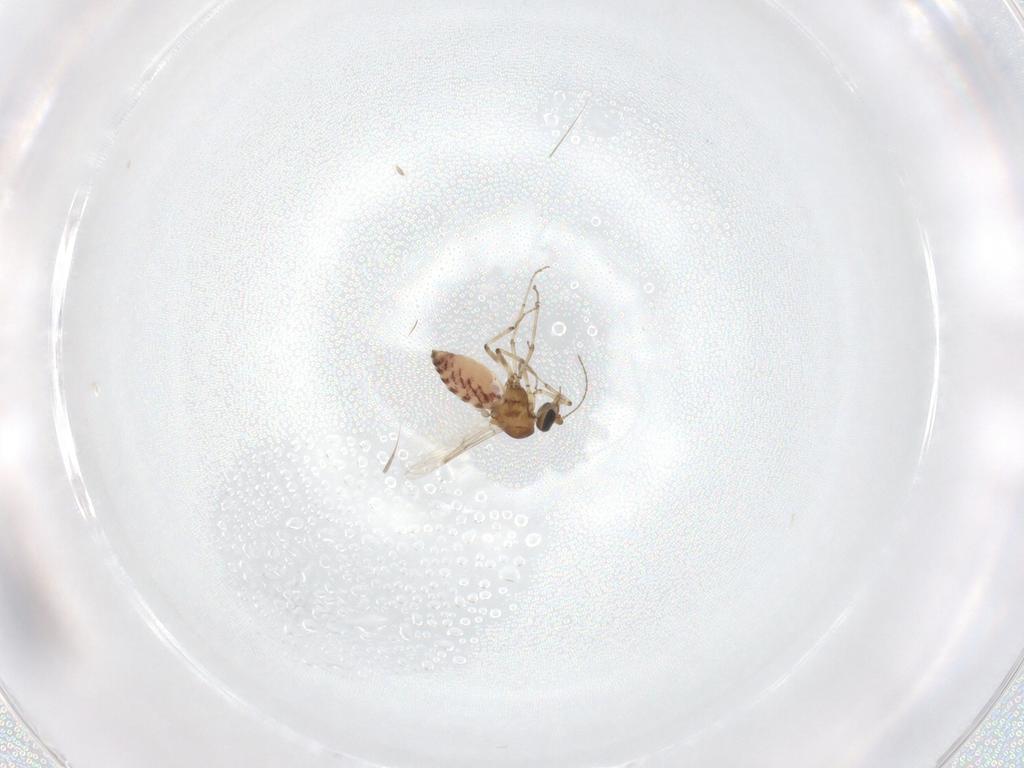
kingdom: Animalia
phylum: Arthropoda
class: Insecta
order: Diptera
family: Ceratopogonidae
